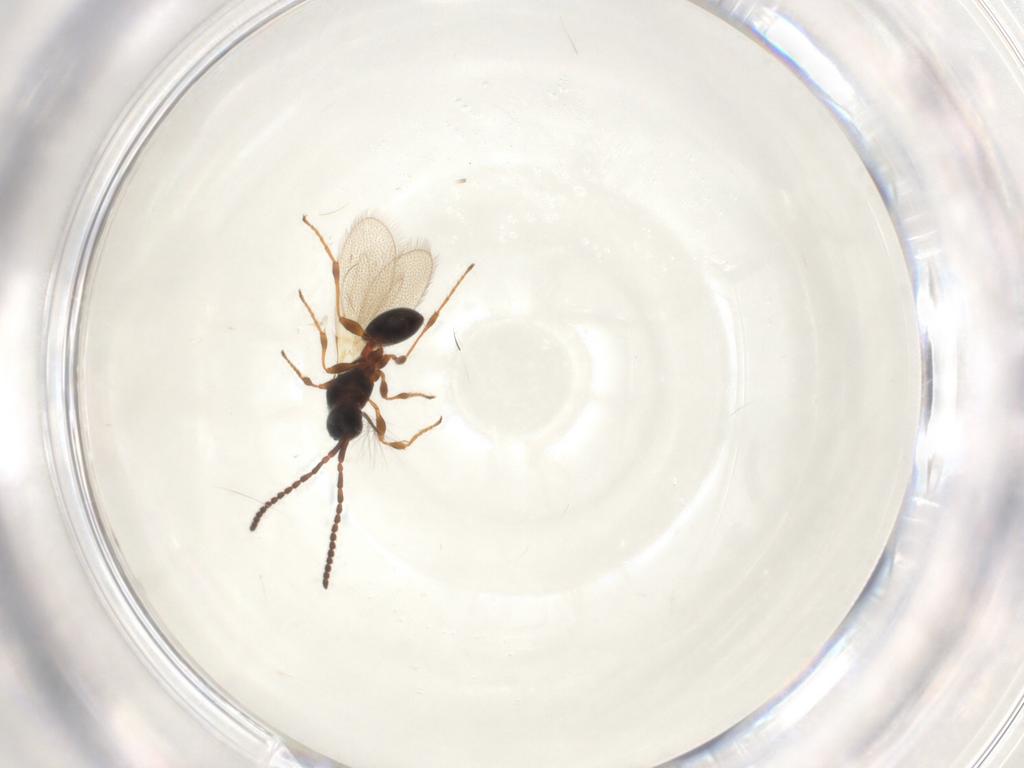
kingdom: Animalia
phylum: Arthropoda
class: Insecta
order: Hymenoptera
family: Diapriidae
